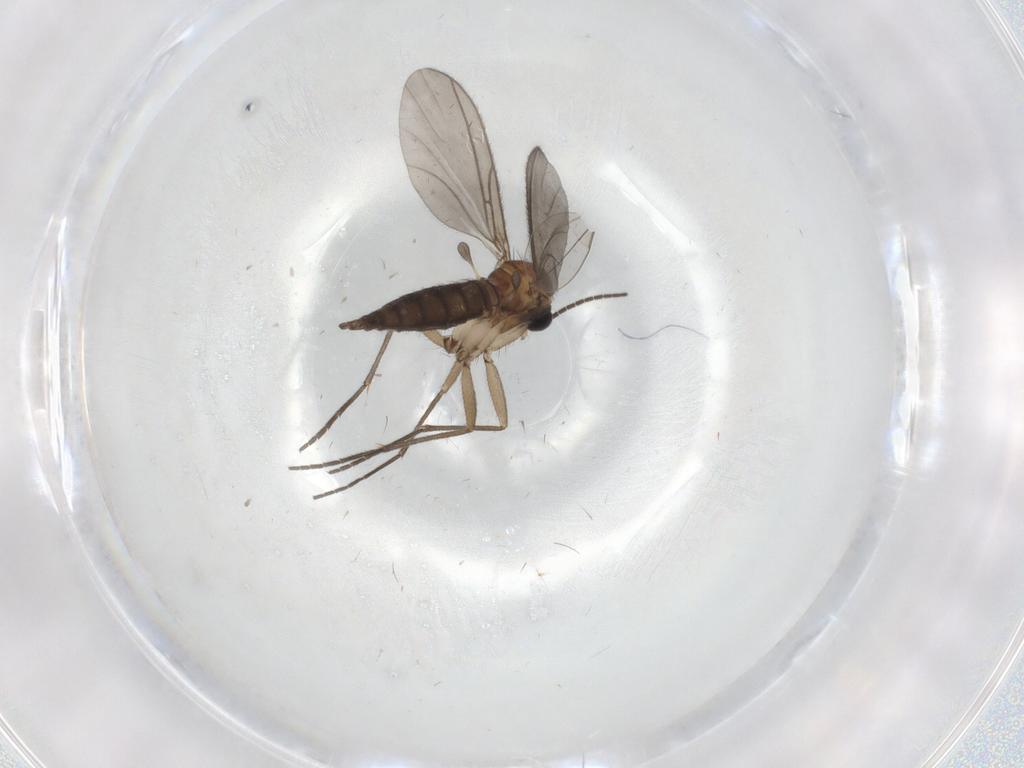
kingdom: Animalia
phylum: Arthropoda
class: Insecta
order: Diptera
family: Sciaridae
